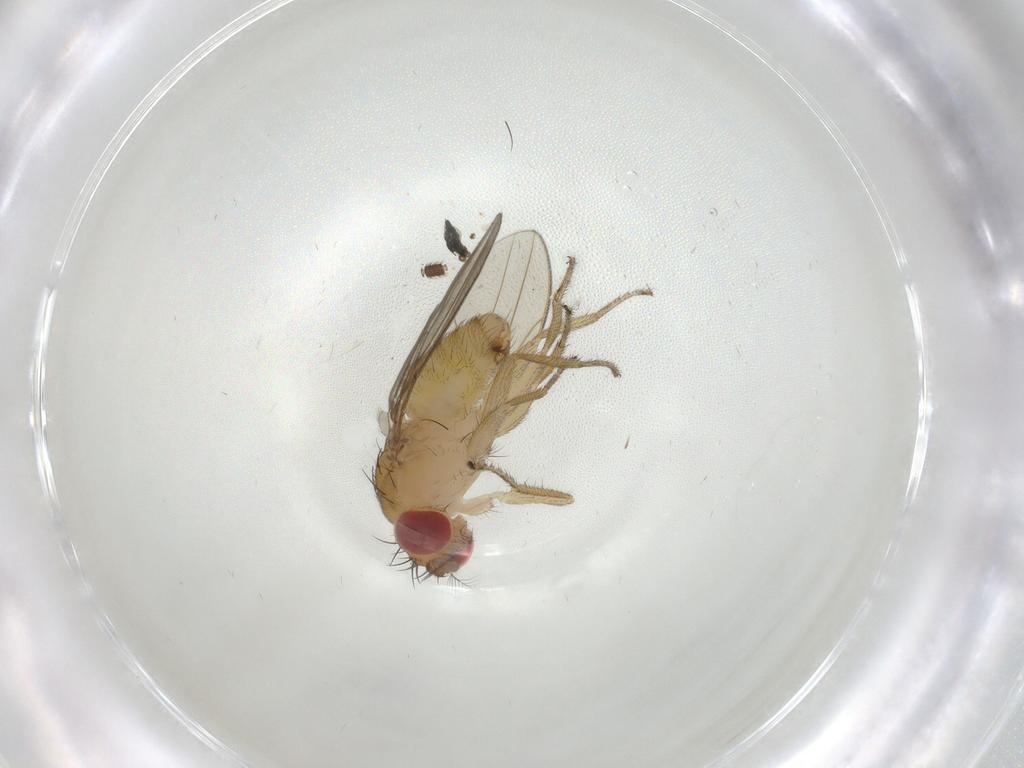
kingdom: Animalia
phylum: Arthropoda
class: Insecta
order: Diptera
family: Drosophilidae
